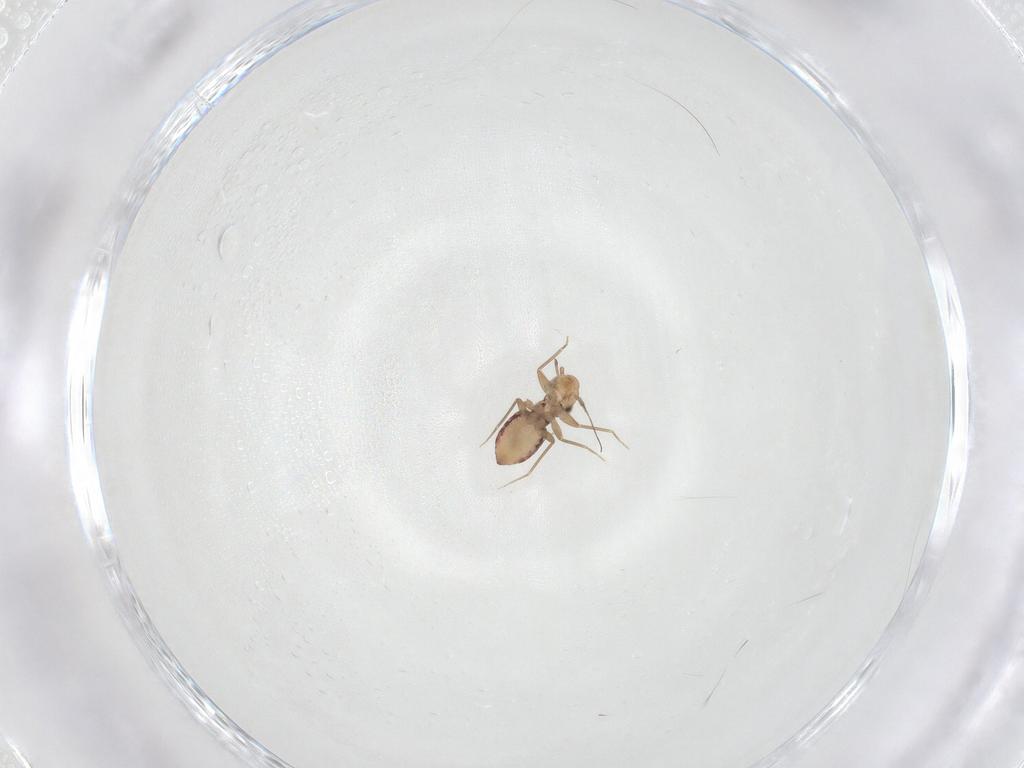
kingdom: Animalia
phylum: Arthropoda
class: Insecta
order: Psocodea
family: Lepidopsocidae
